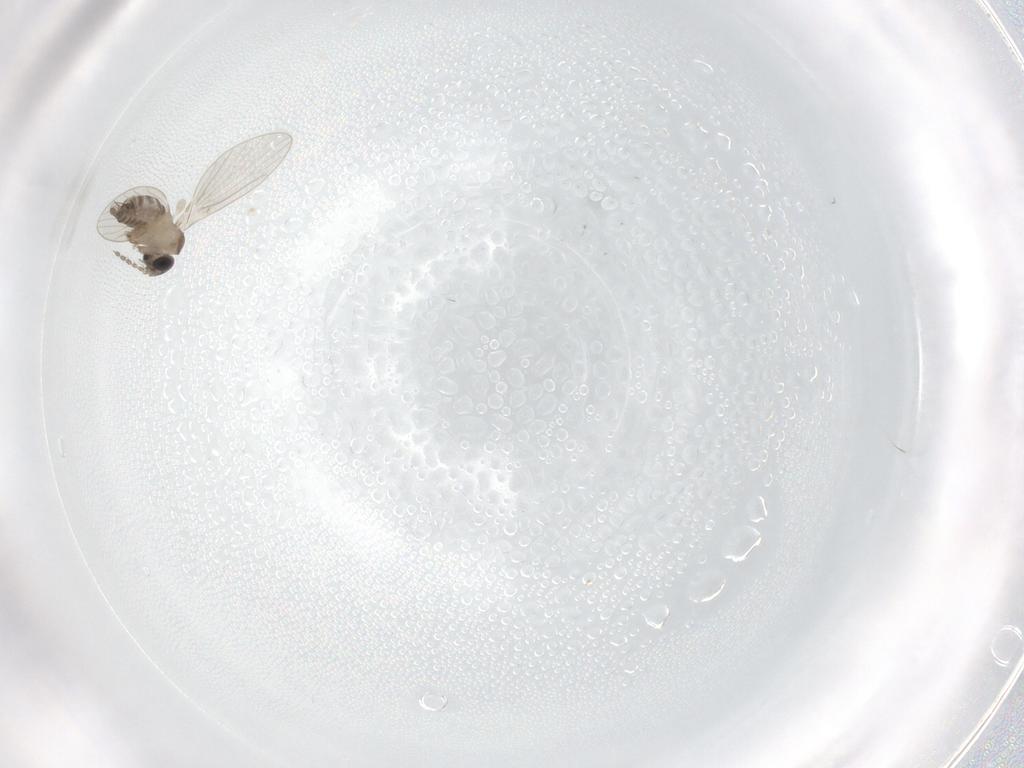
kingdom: Animalia
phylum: Arthropoda
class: Insecta
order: Diptera
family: Psychodidae
